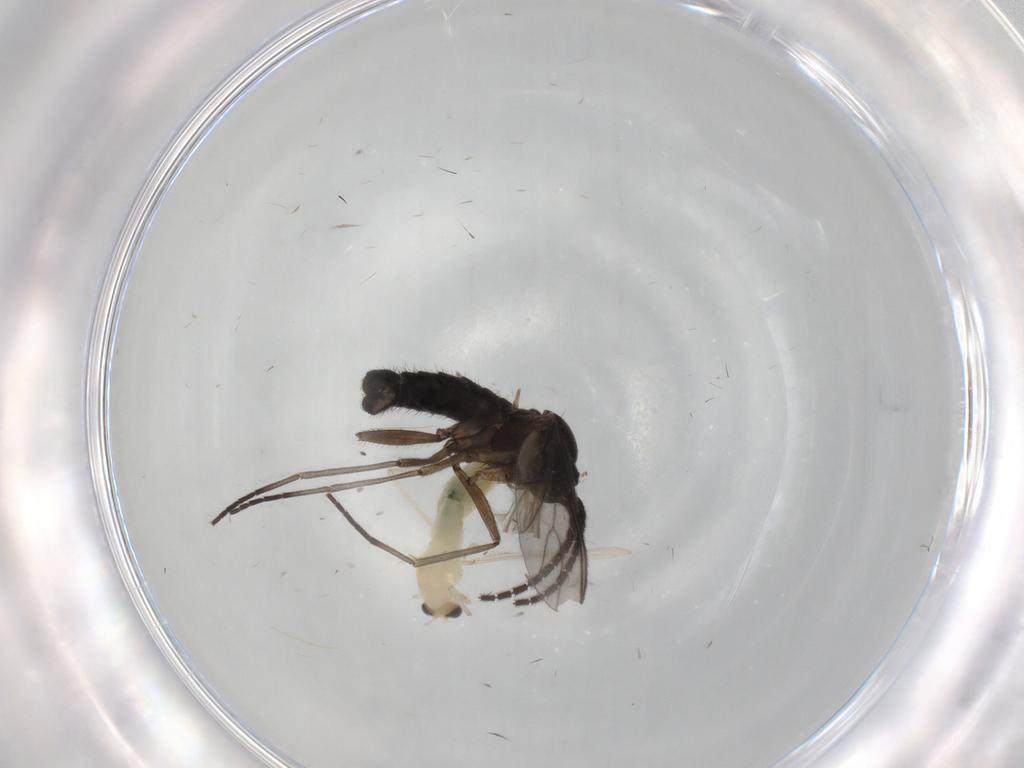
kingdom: Animalia
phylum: Arthropoda
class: Insecta
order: Diptera
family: Sciaridae
